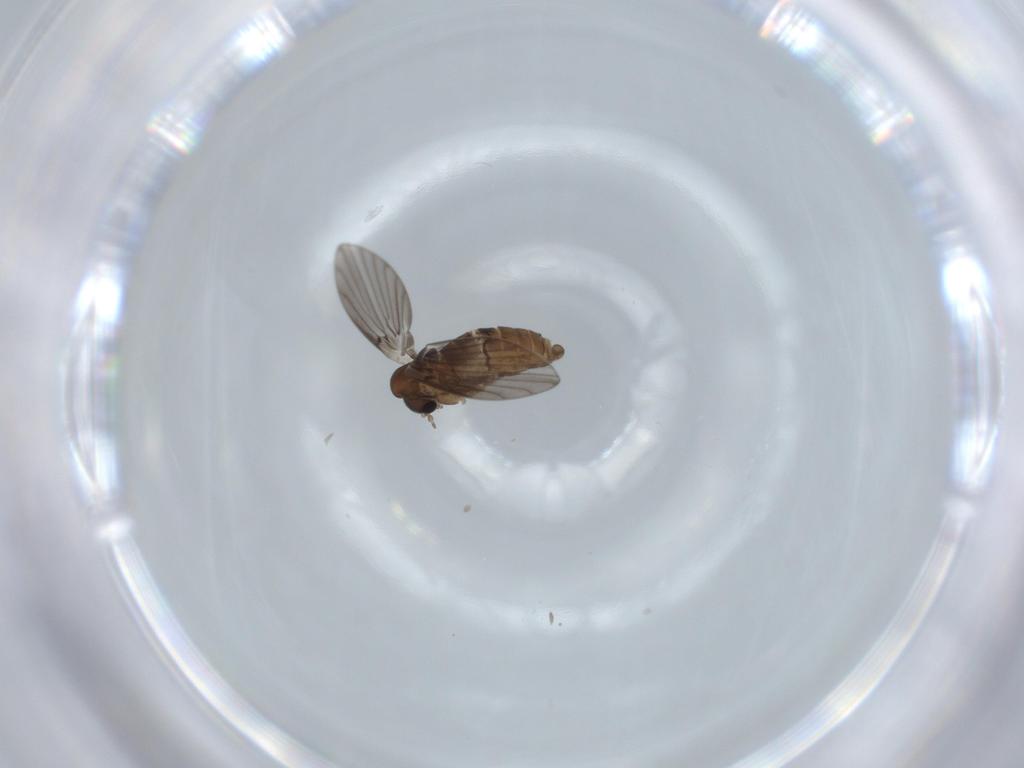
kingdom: Animalia
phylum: Arthropoda
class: Insecta
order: Diptera
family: Psychodidae
